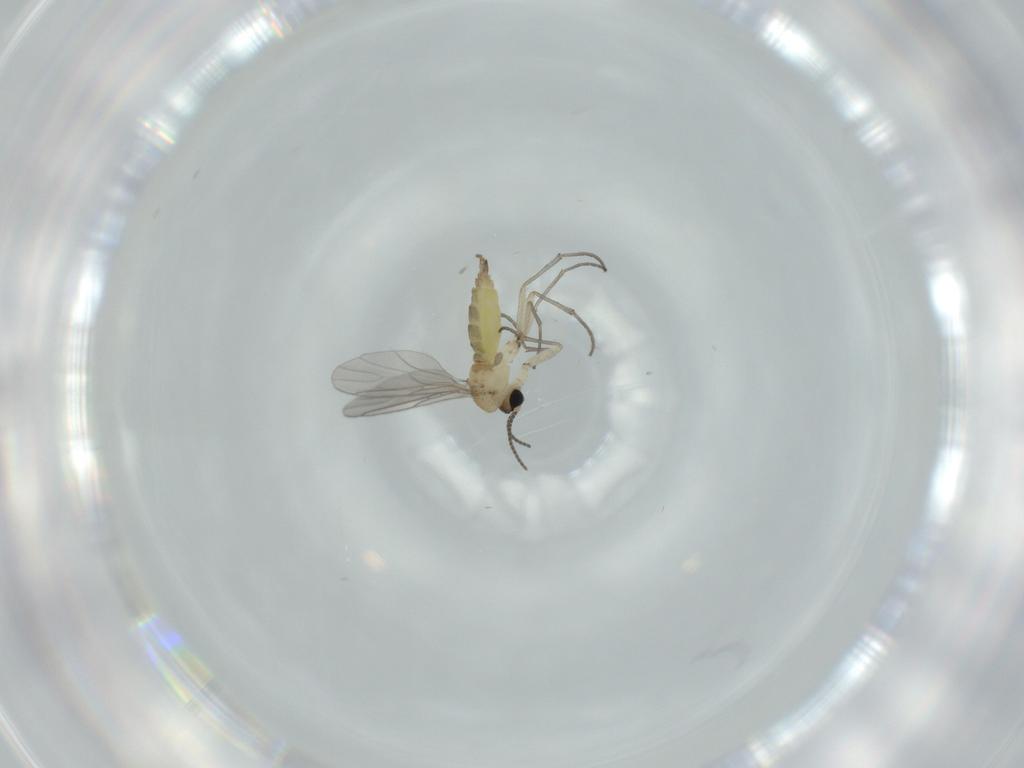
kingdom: Animalia
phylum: Arthropoda
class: Insecta
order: Diptera
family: Sciaridae
